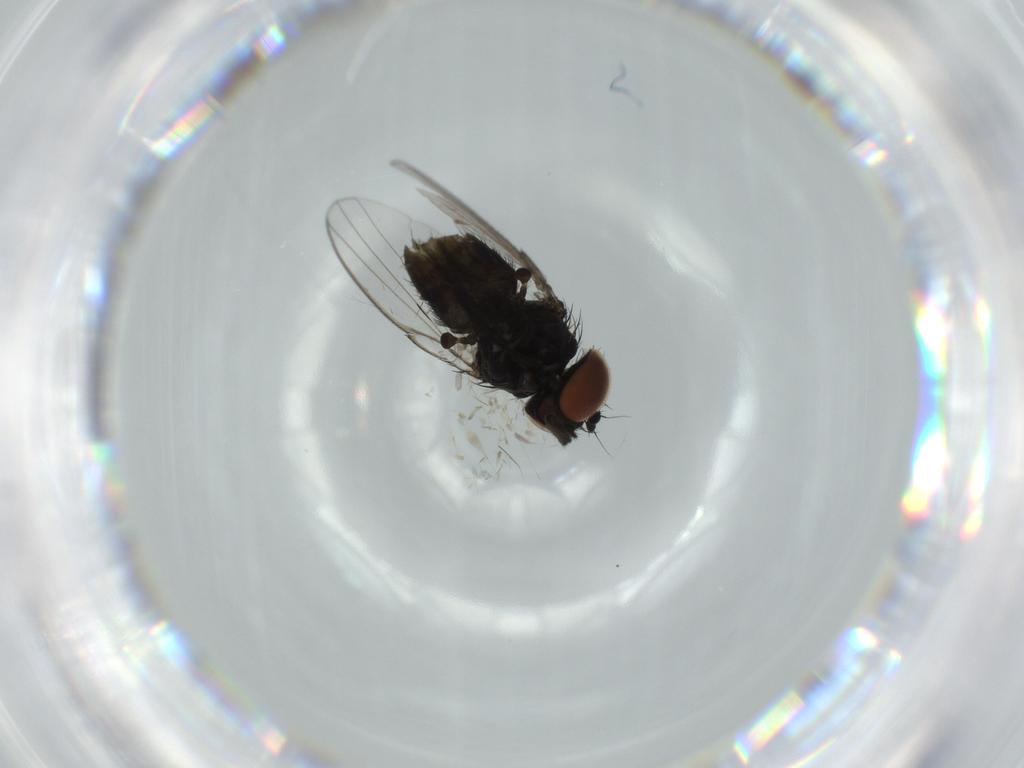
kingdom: Animalia
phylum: Arthropoda
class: Insecta
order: Diptera
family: Milichiidae
